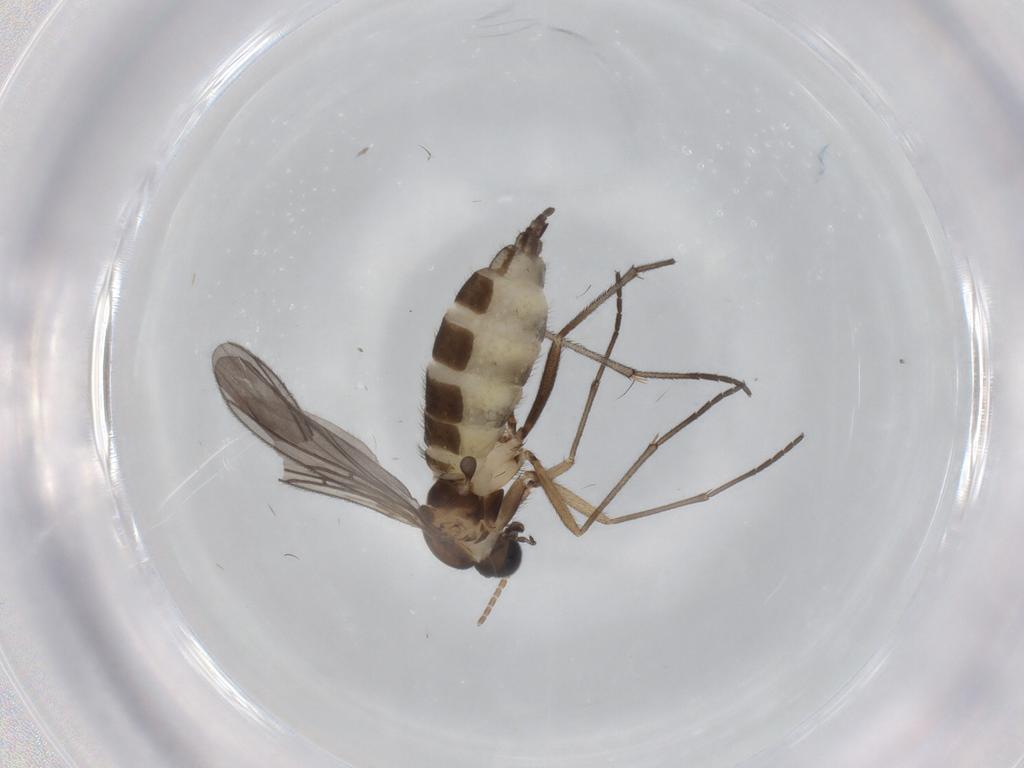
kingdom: Animalia
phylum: Arthropoda
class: Insecta
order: Diptera
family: Sciaridae
